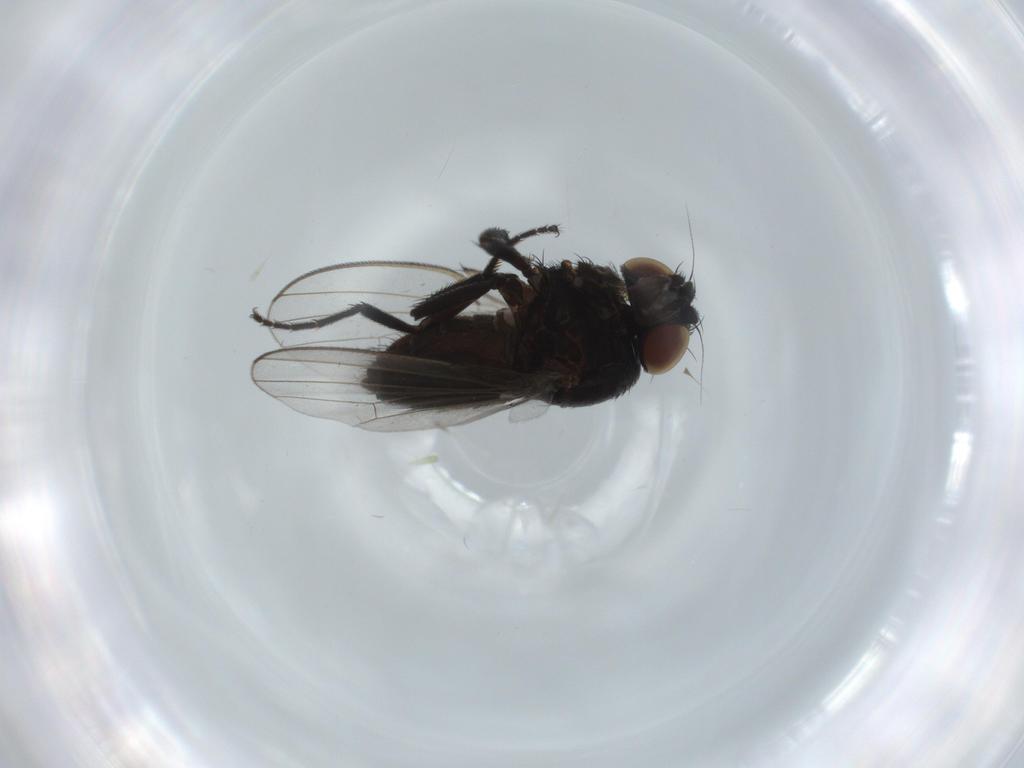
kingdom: Animalia
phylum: Arthropoda
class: Insecta
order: Diptera
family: Milichiidae
